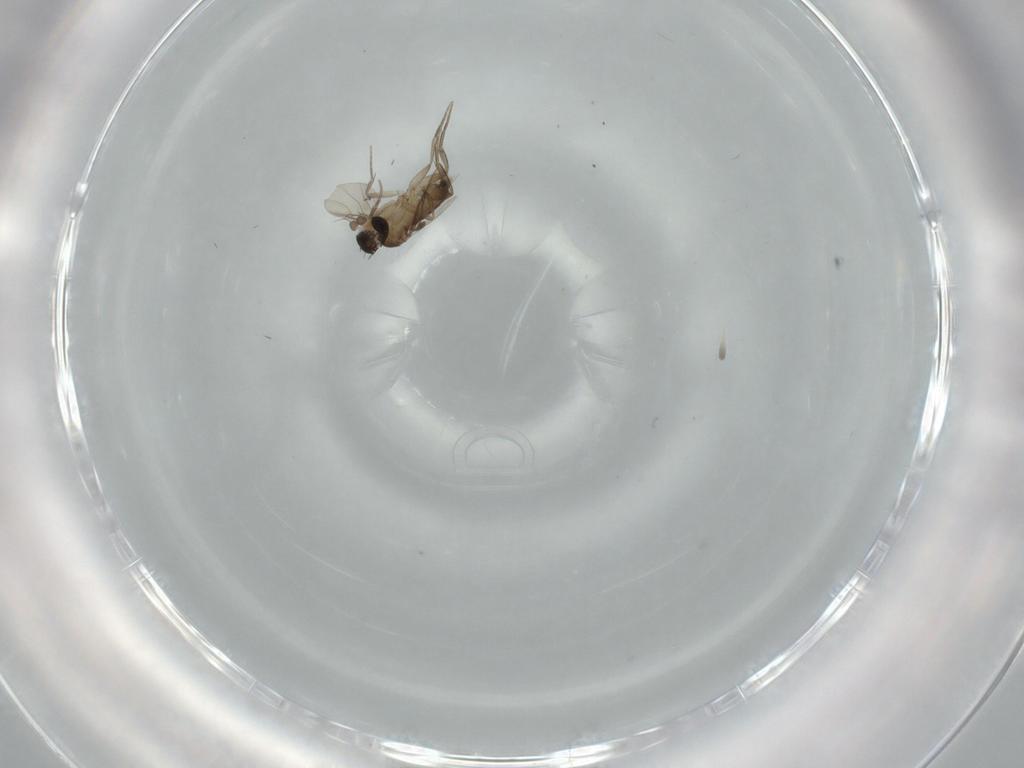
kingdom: Animalia
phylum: Arthropoda
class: Insecta
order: Diptera
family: Phoridae
